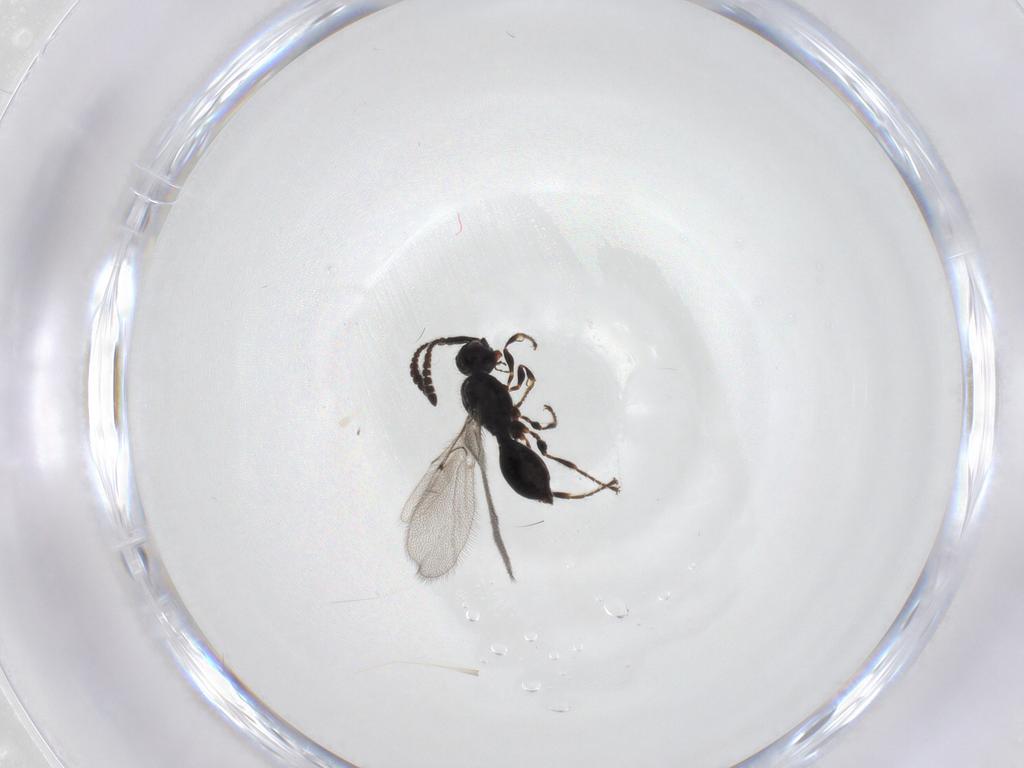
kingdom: Animalia
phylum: Arthropoda
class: Insecta
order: Hymenoptera
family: Diapriidae
